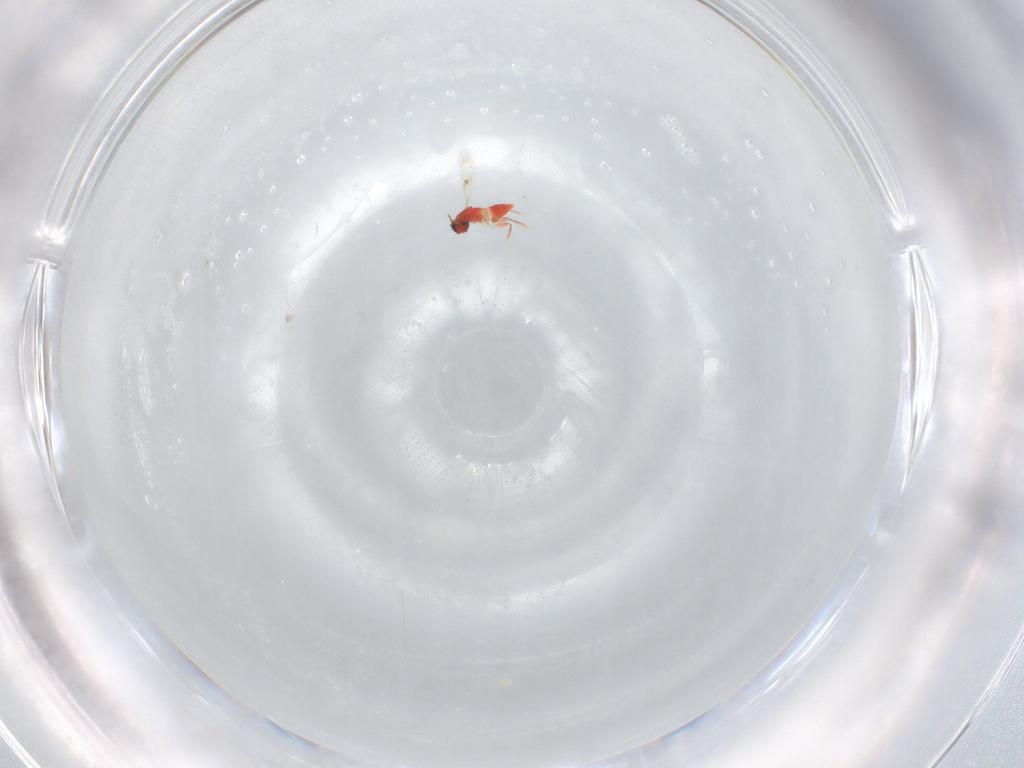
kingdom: Animalia
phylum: Arthropoda
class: Insecta
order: Hymenoptera
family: Trichogrammatidae
